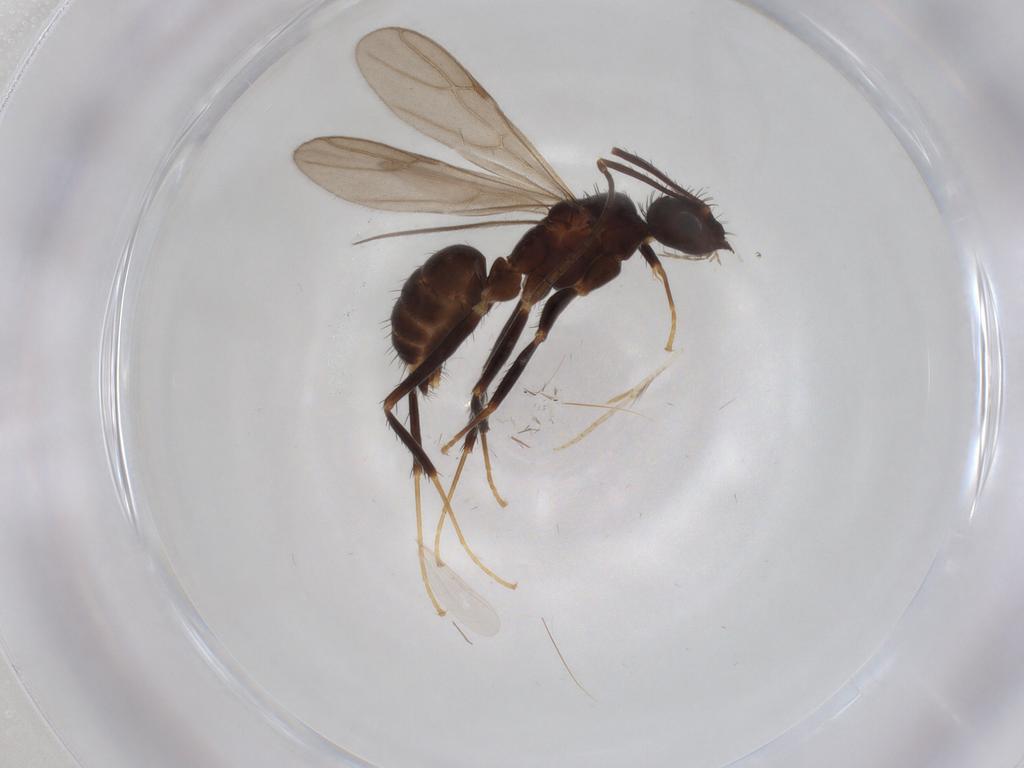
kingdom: Animalia
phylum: Arthropoda
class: Insecta
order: Hymenoptera
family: Formicidae
